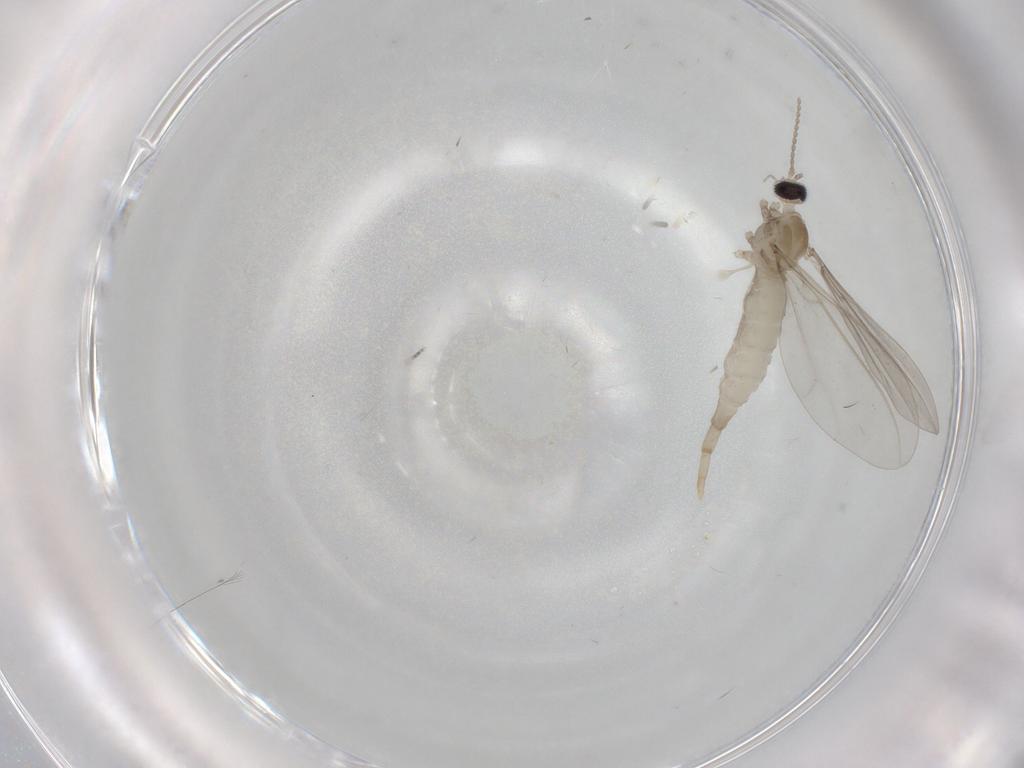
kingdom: Animalia
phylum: Arthropoda
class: Insecta
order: Diptera
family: Cecidomyiidae
